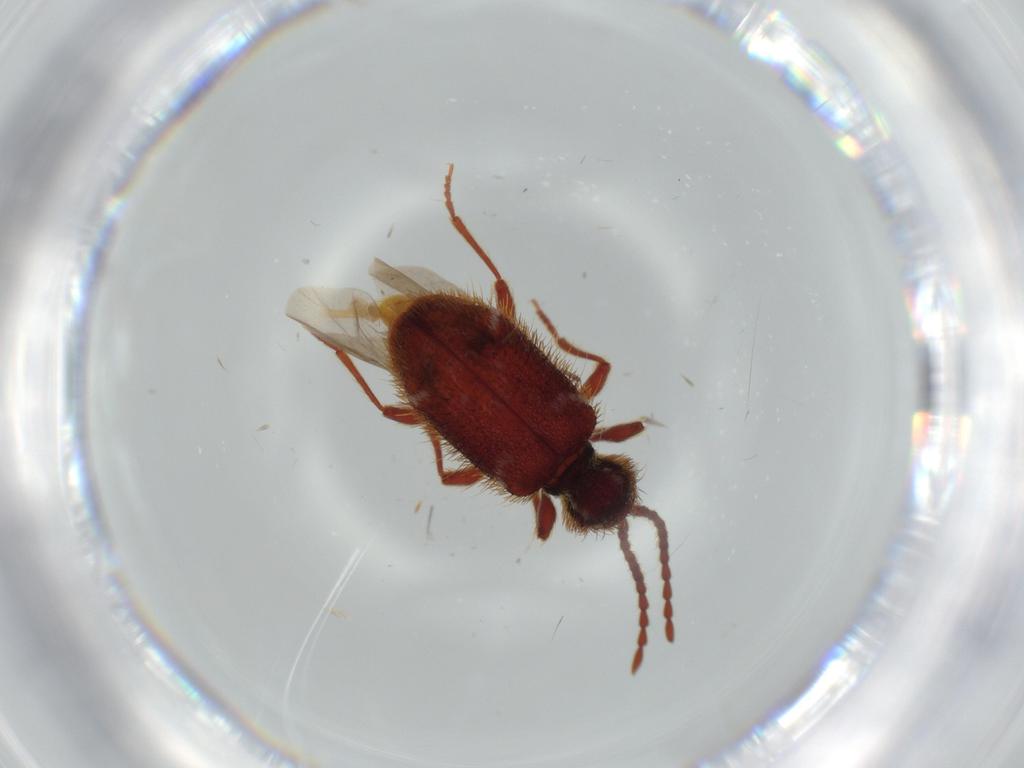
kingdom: Animalia
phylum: Arthropoda
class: Insecta
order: Coleoptera
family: Ptinidae
